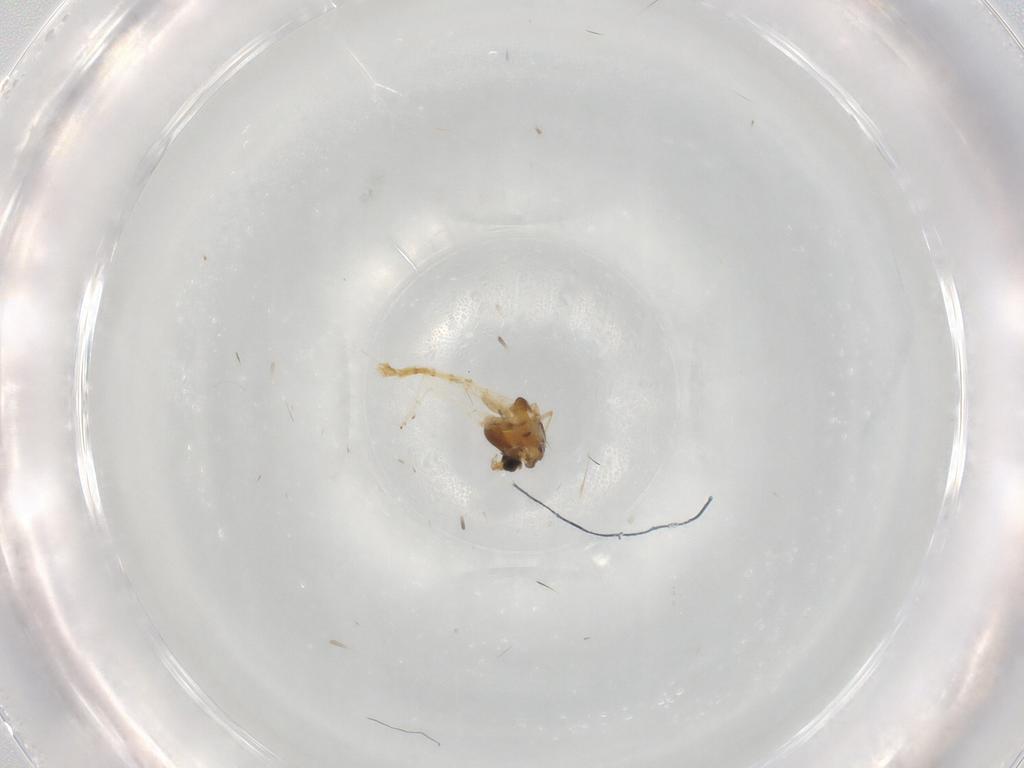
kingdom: Animalia
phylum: Arthropoda
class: Insecta
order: Diptera
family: Chironomidae
